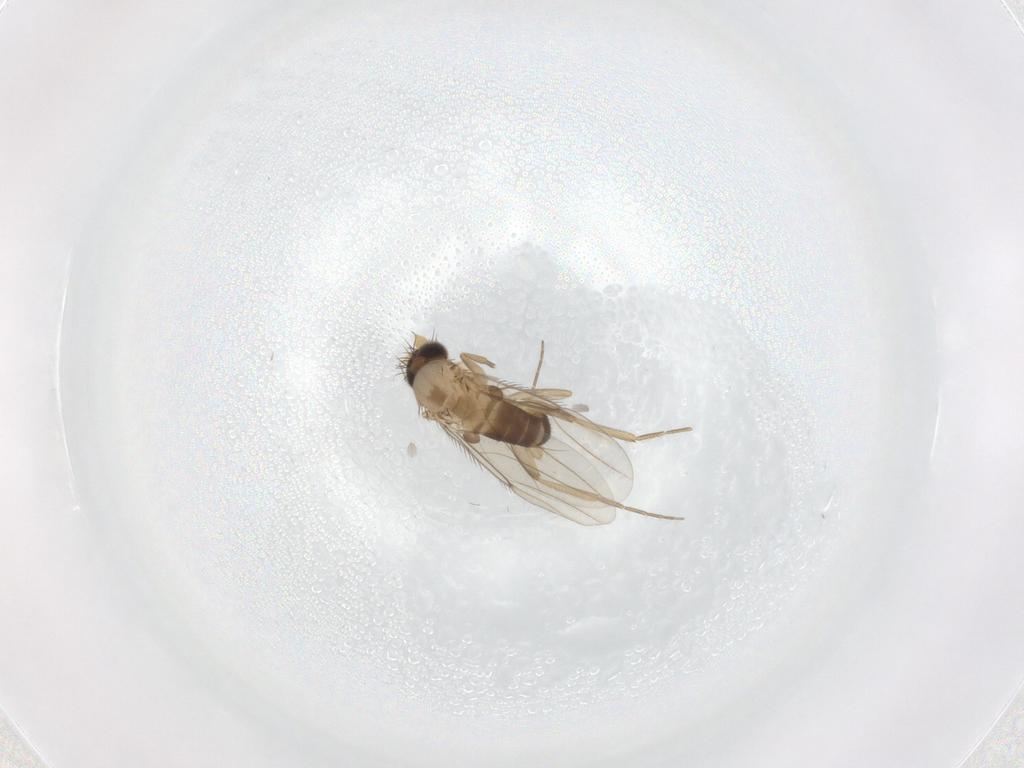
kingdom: Animalia
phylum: Arthropoda
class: Insecta
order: Diptera
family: Phoridae
